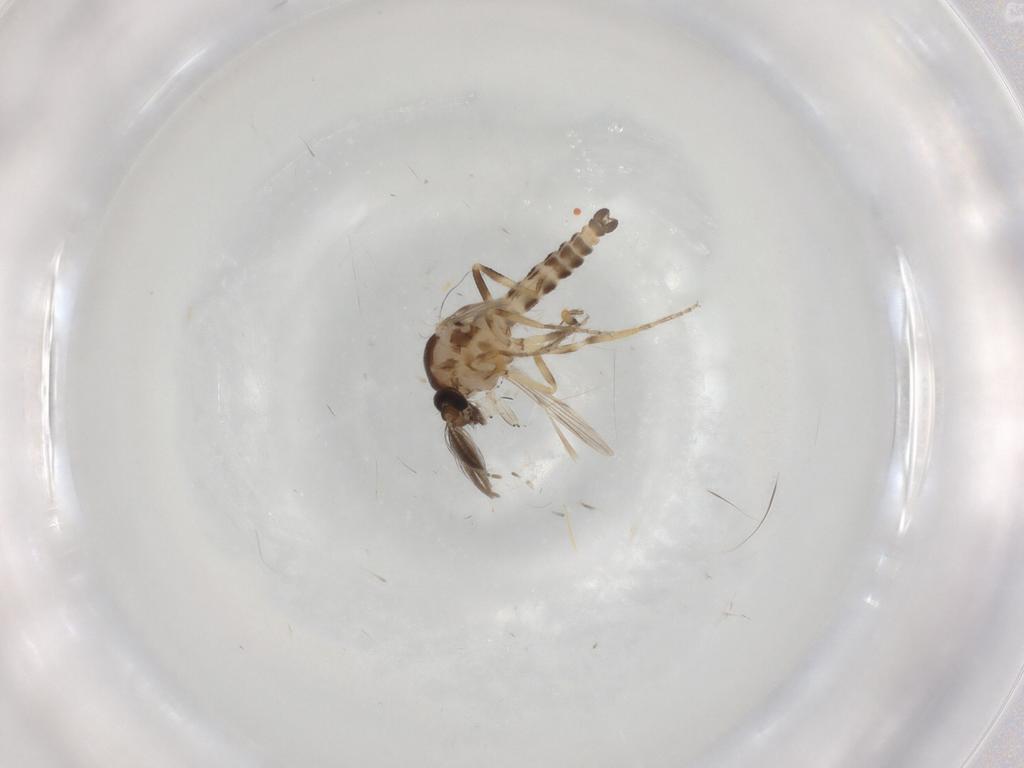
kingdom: Animalia
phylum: Arthropoda
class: Insecta
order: Diptera
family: Ceratopogonidae
